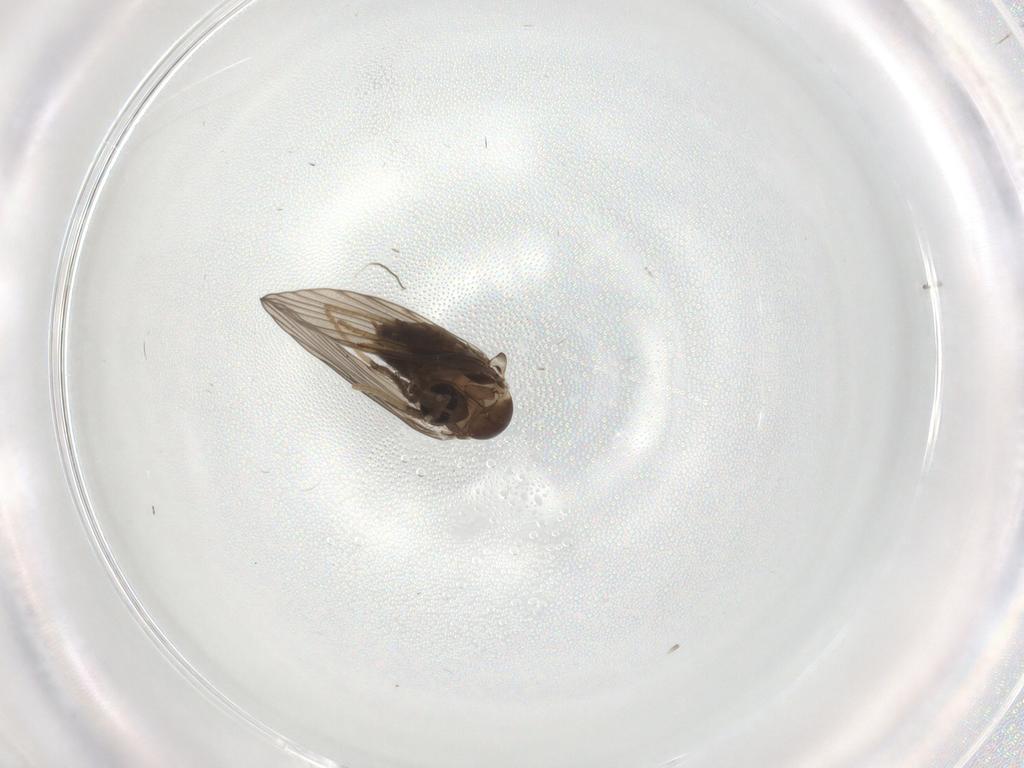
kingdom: Animalia
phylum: Arthropoda
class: Insecta
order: Diptera
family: Psychodidae
